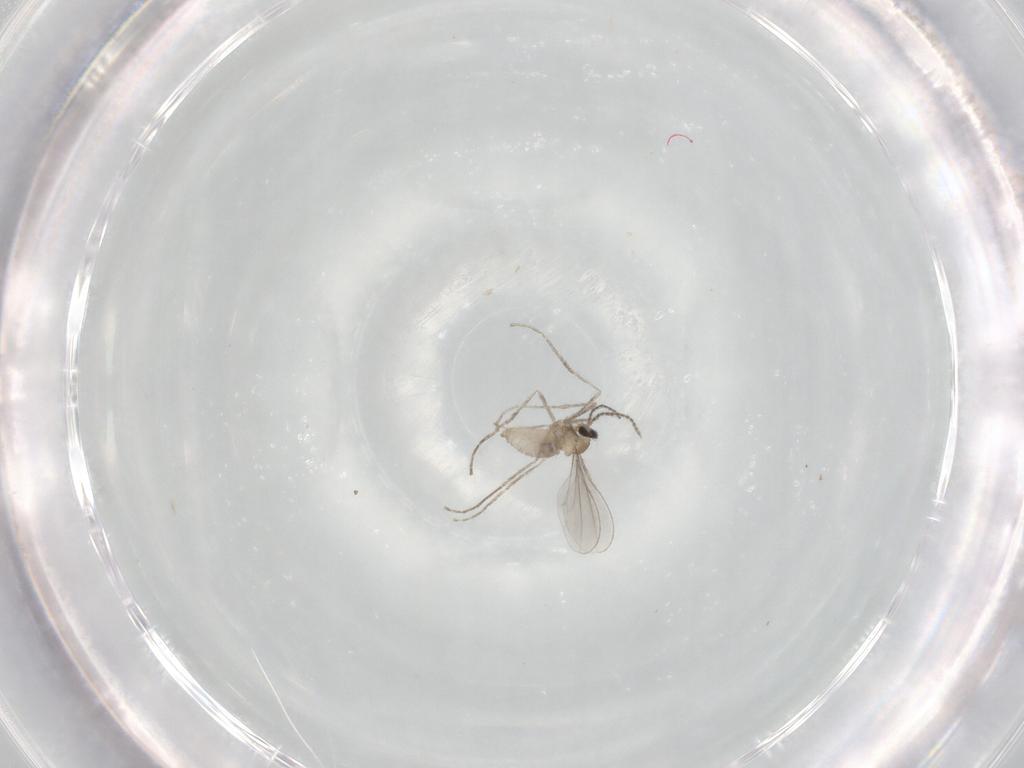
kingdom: Animalia
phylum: Arthropoda
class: Insecta
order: Diptera
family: Cecidomyiidae
